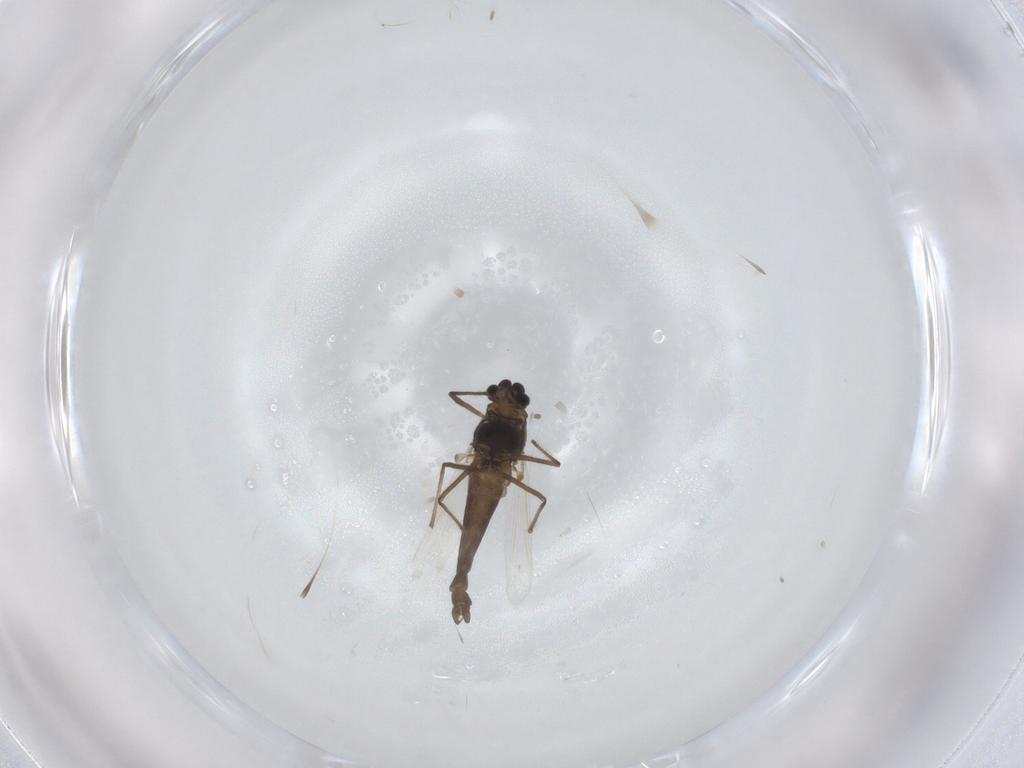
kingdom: Animalia
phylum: Arthropoda
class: Insecta
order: Diptera
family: Chironomidae
